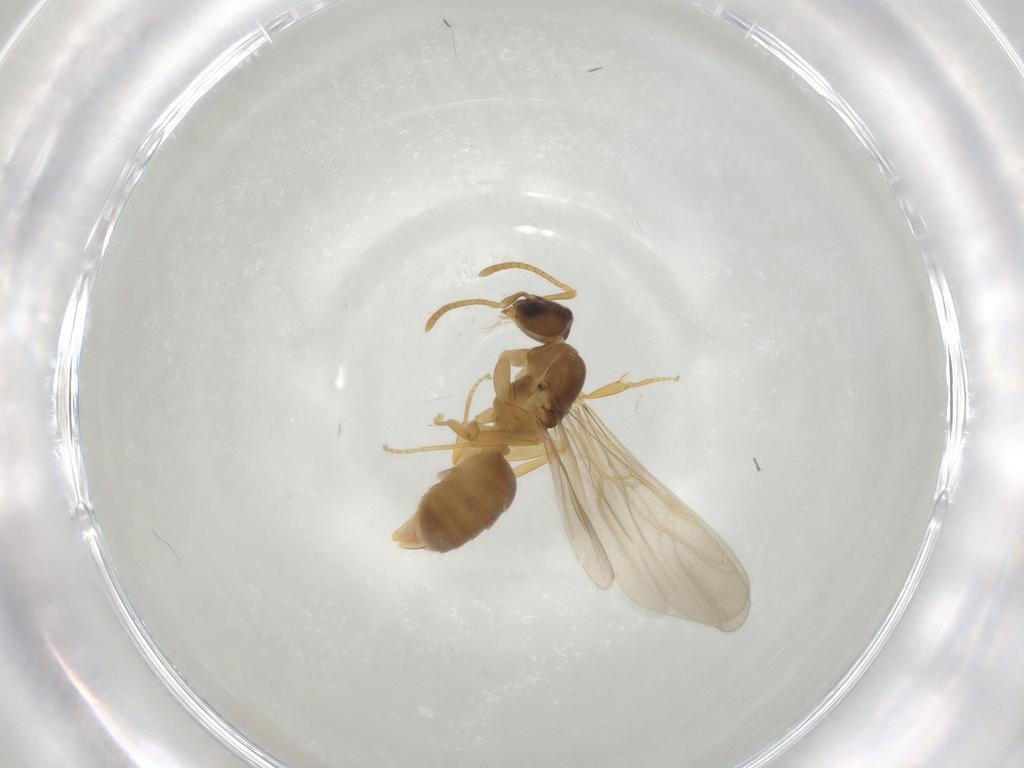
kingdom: Animalia
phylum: Arthropoda
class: Insecta
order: Hymenoptera
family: Formicidae
